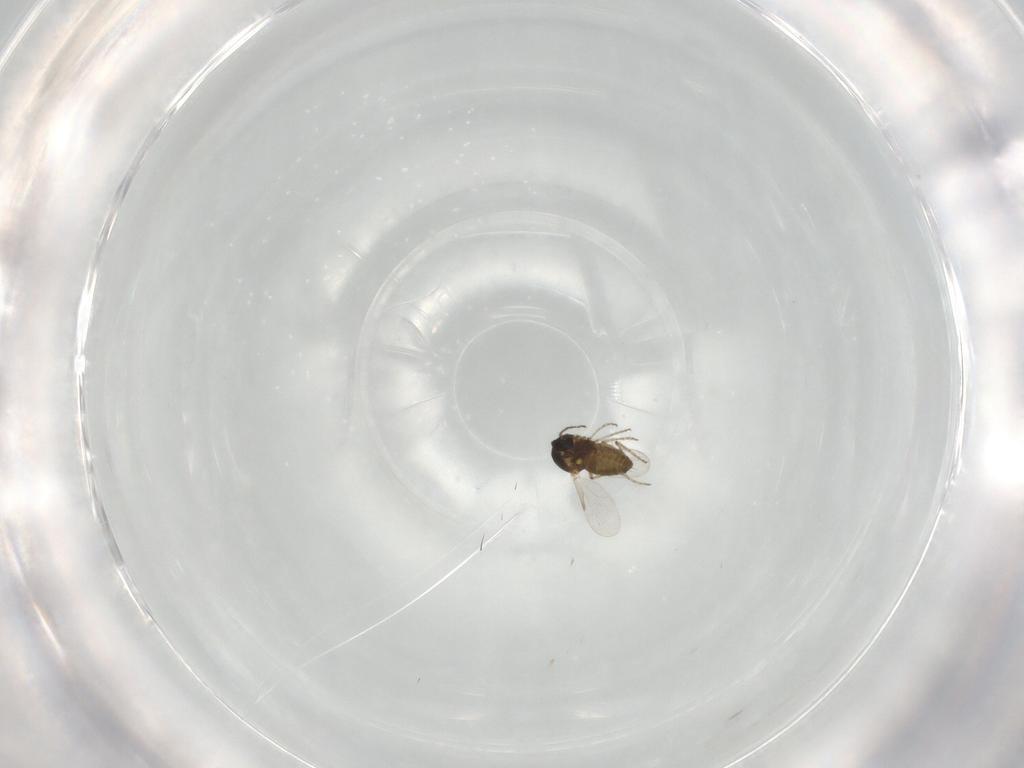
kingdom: Animalia
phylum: Arthropoda
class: Insecta
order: Diptera
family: Ceratopogonidae
